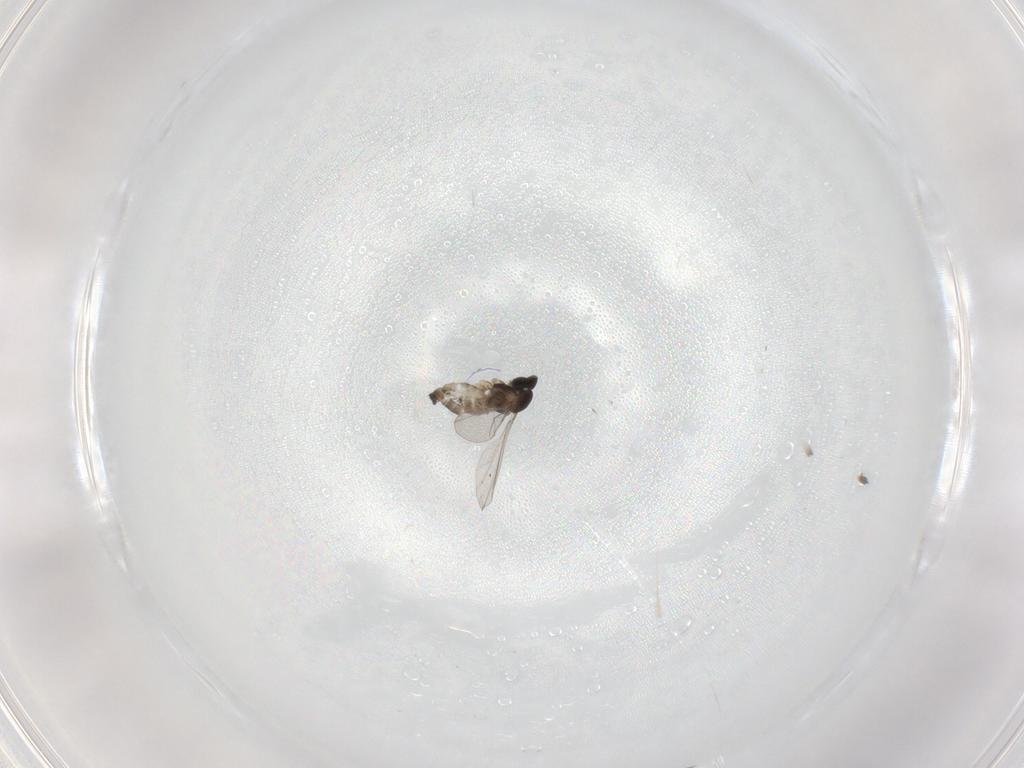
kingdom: Animalia
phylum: Arthropoda
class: Insecta
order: Diptera
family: Cecidomyiidae
